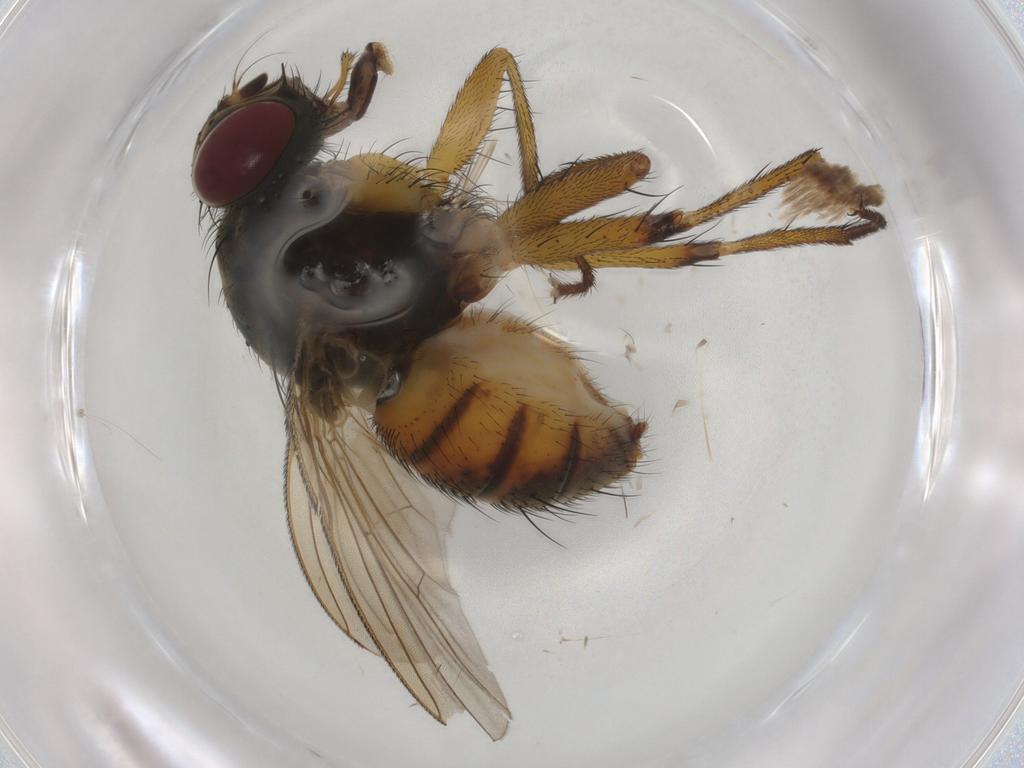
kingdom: Animalia
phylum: Arthropoda
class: Insecta
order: Diptera
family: Muscidae
